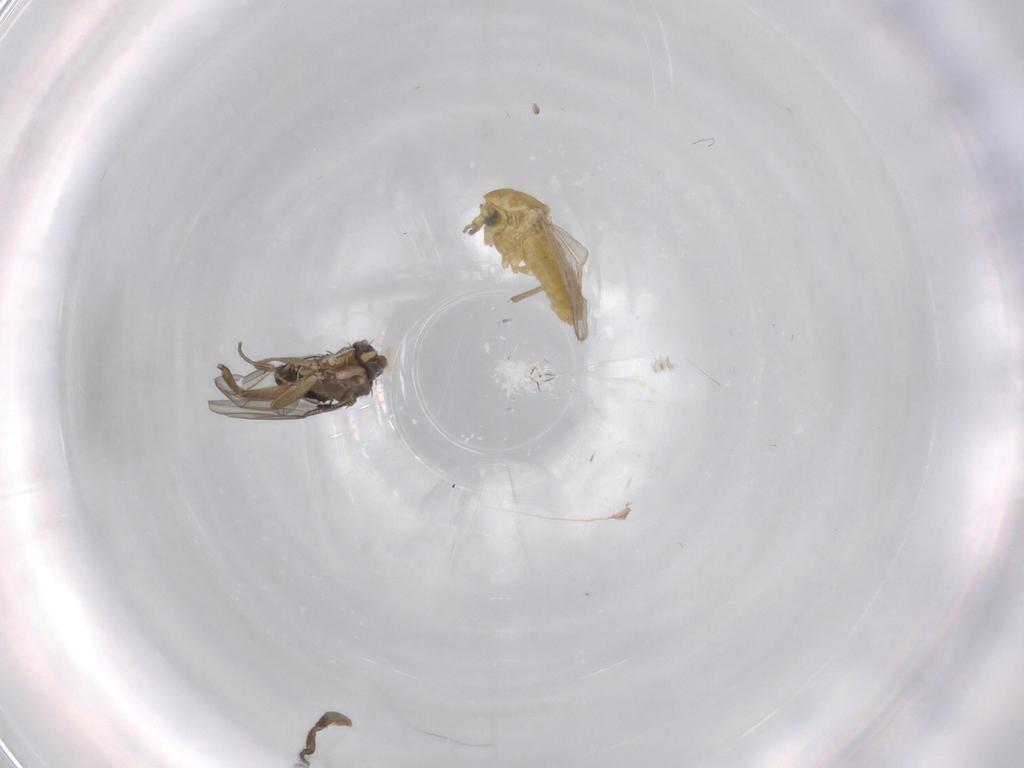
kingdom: Animalia
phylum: Arthropoda
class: Insecta
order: Diptera
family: Chironomidae
